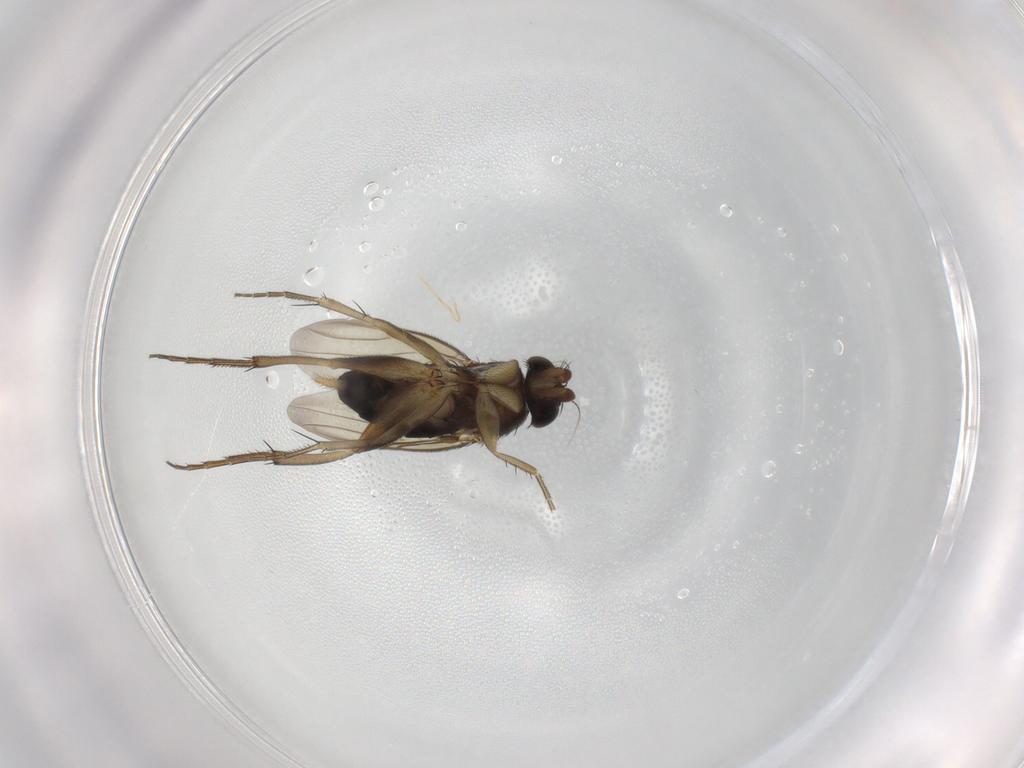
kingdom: Animalia
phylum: Arthropoda
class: Insecta
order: Diptera
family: Phoridae
